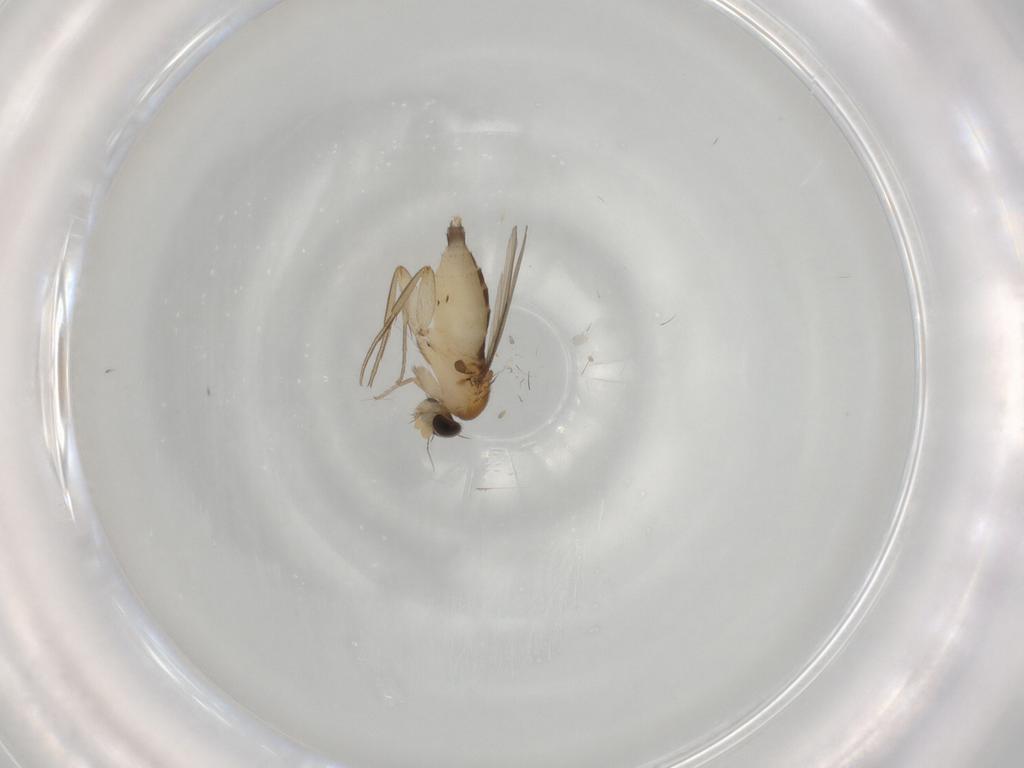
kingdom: Animalia
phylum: Arthropoda
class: Insecta
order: Diptera
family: Phoridae
